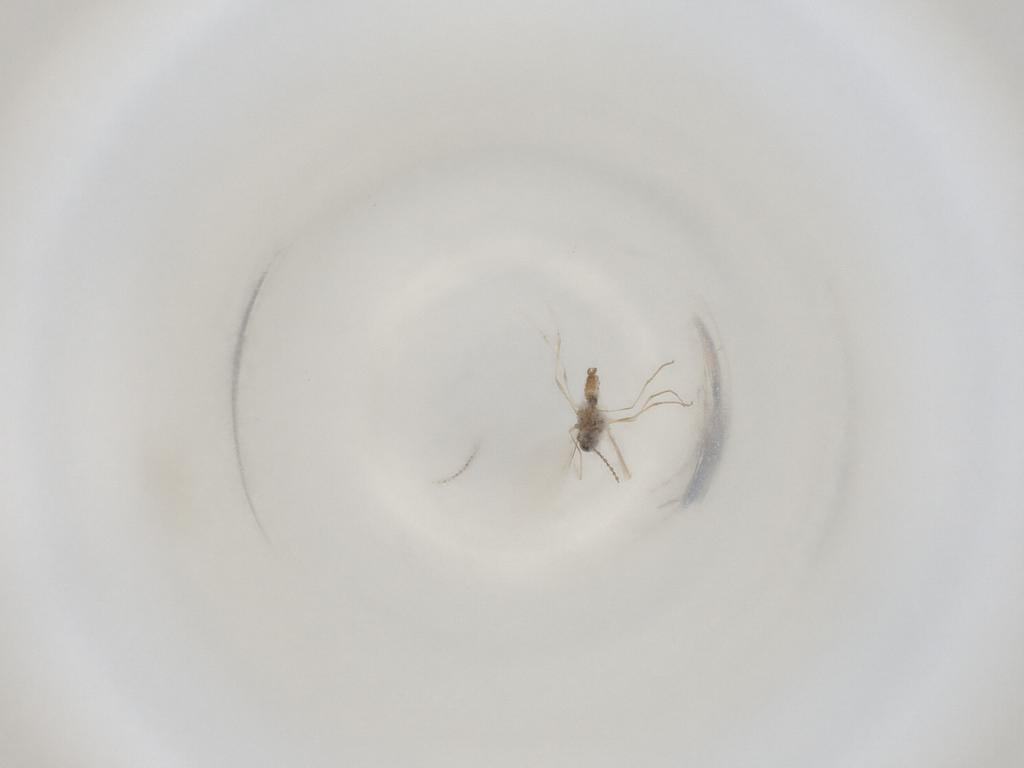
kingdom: Animalia
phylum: Arthropoda
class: Insecta
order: Diptera
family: Cecidomyiidae
